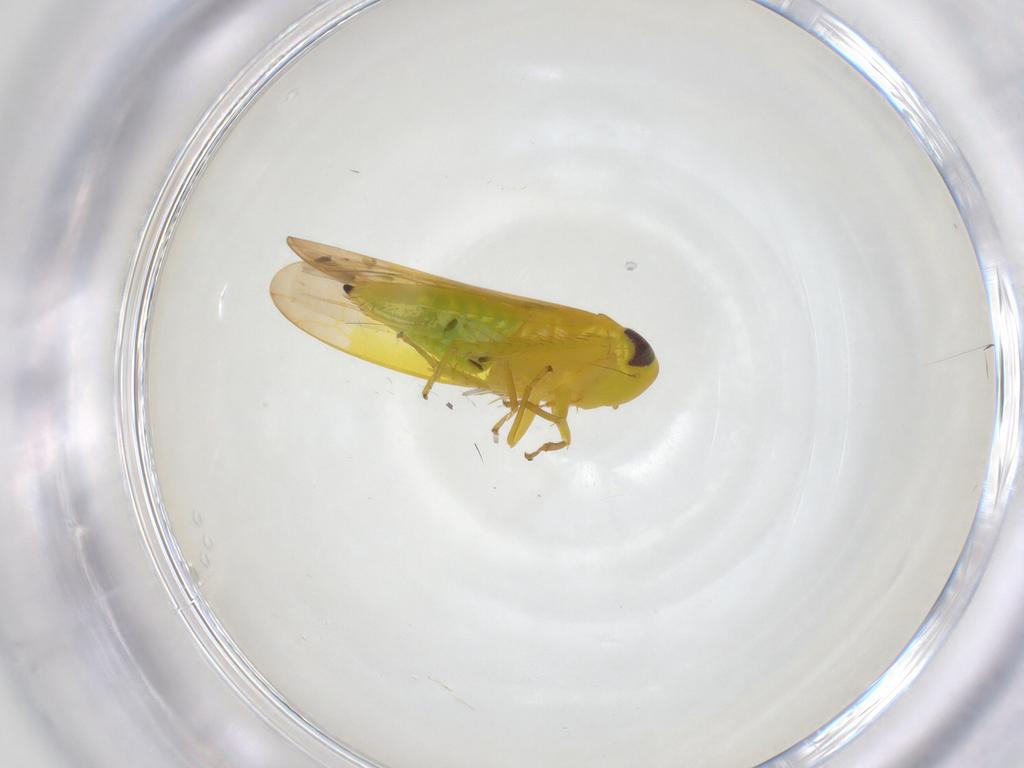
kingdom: Animalia
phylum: Arthropoda
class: Insecta
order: Hemiptera
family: Cicadellidae
